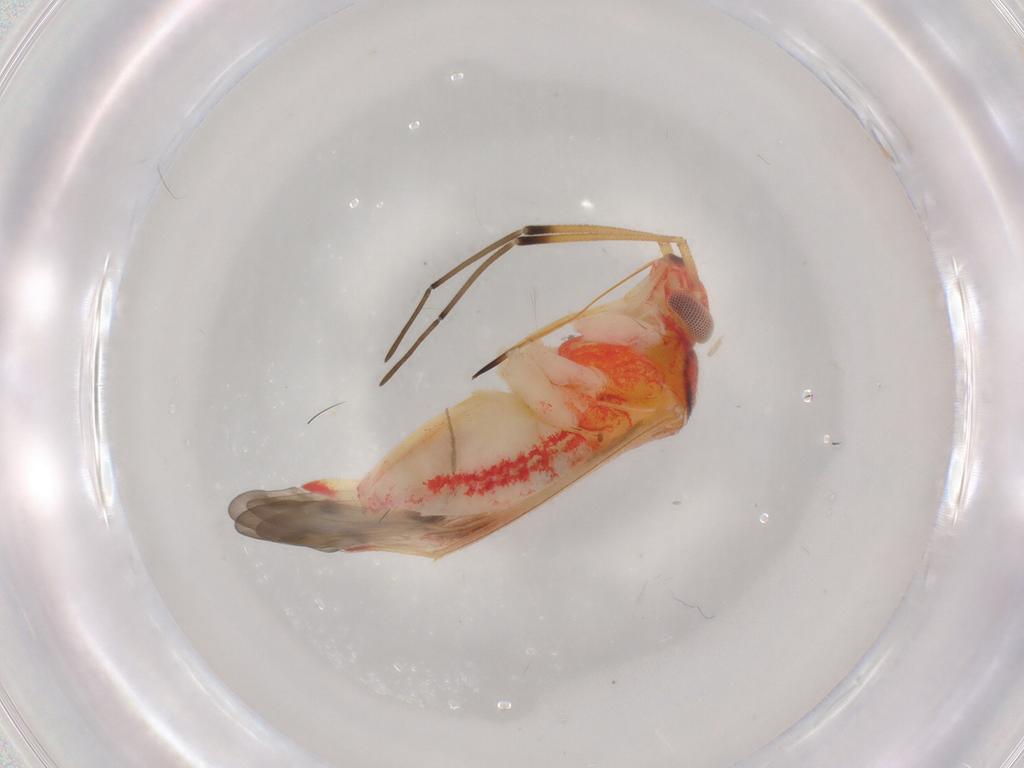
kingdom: Animalia
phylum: Arthropoda
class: Insecta
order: Hemiptera
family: Miridae
